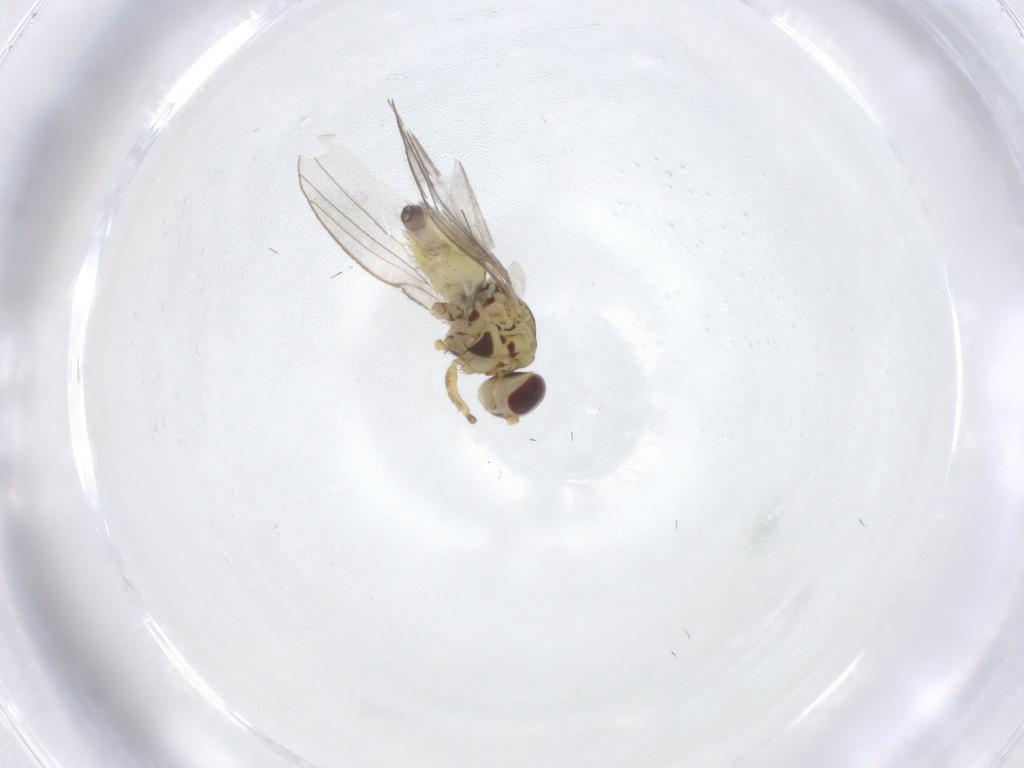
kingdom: Animalia
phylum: Arthropoda
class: Insecta
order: Diptera
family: Agromyzidae
